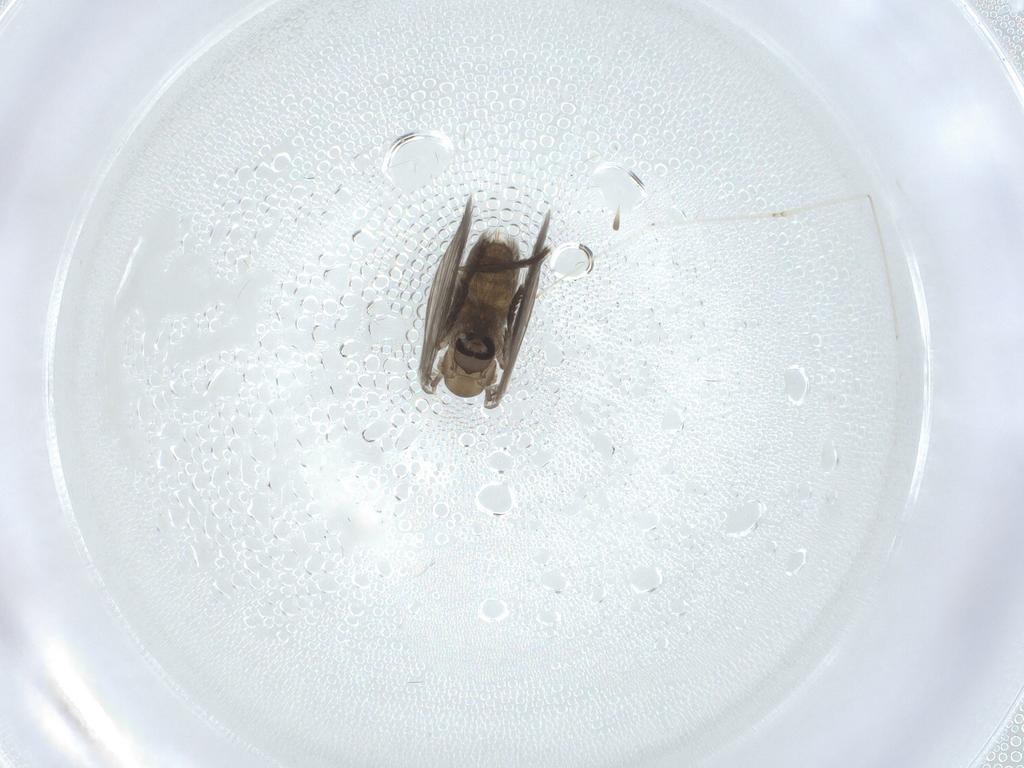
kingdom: Animalia
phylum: Arthropoda
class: Insecta
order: Diptera
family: Psychodidae
